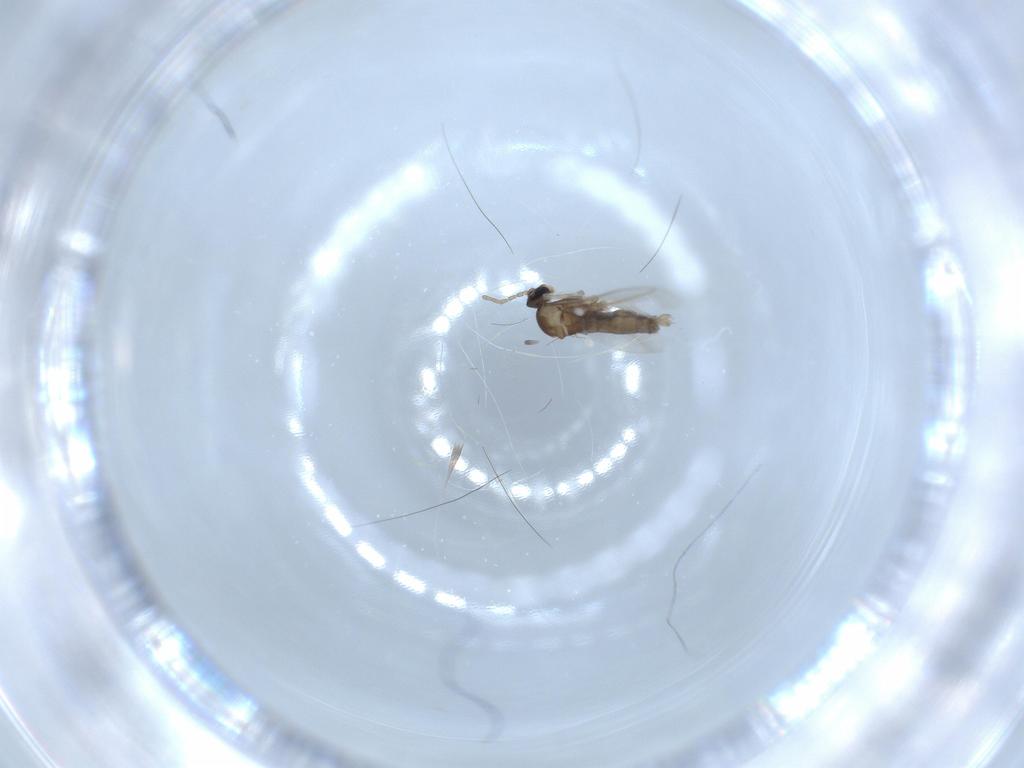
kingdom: Animalia
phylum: Arthropoda
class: Insecta
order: Diptera
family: Cecidomyiidae
